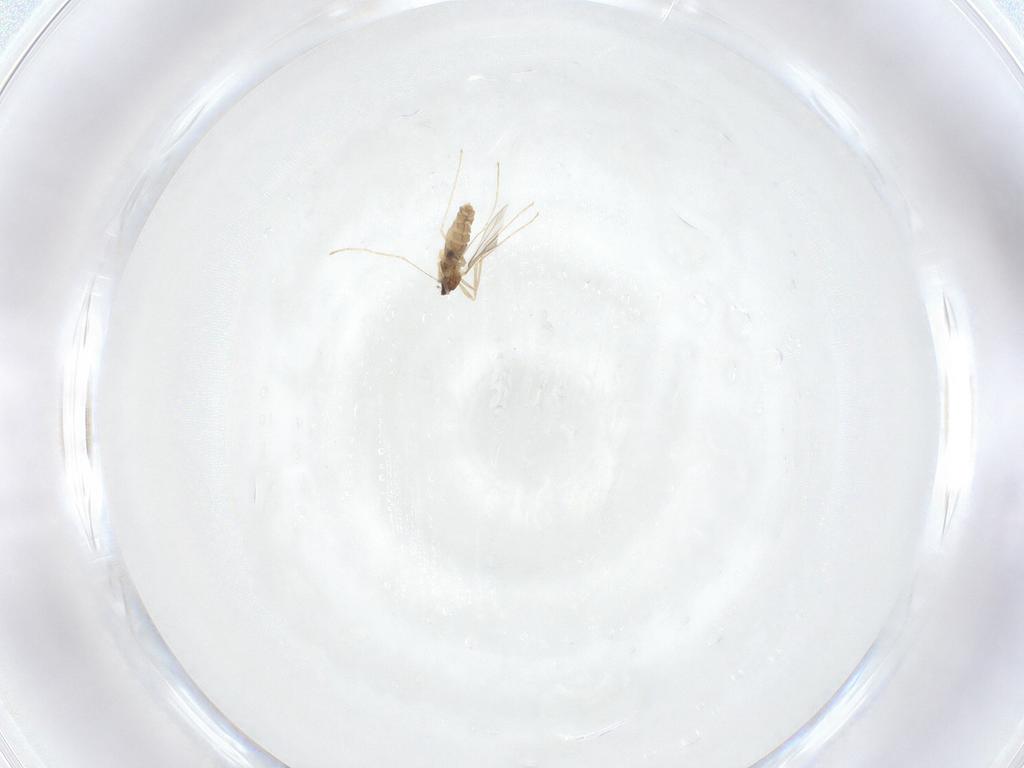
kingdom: Animalia
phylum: Arthropoda
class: Insecta
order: Diptera
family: Cecidomyiidae
